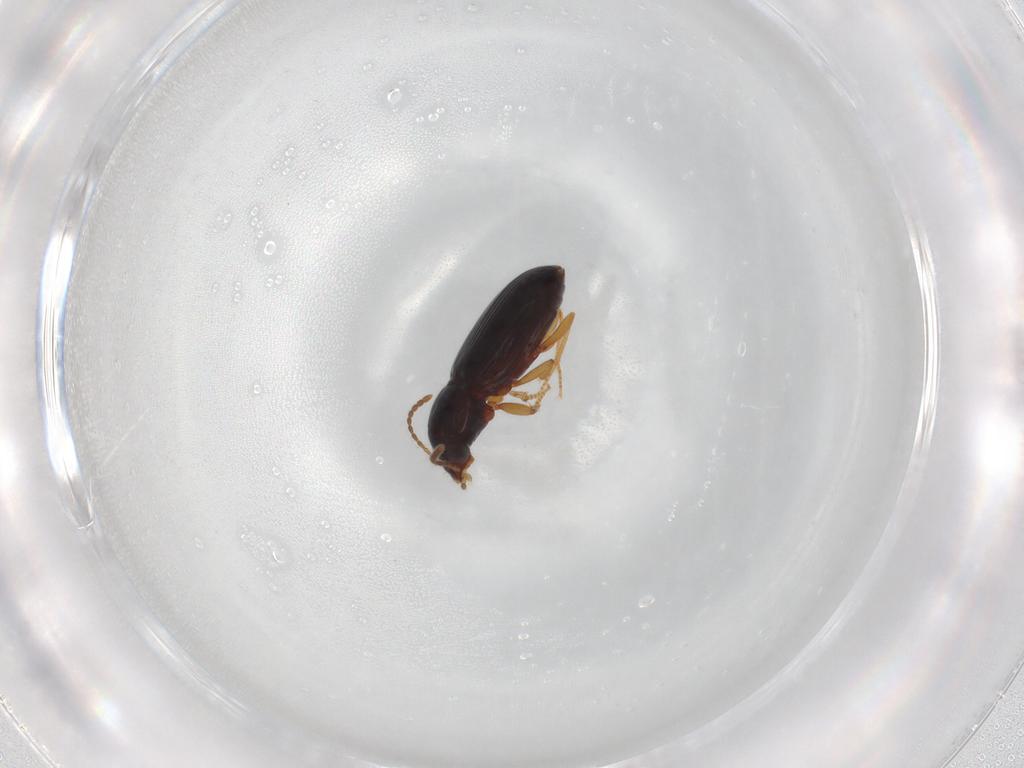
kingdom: Animalia
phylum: Arthropoda
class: Insecta
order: Coleoptera
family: Carabidae
